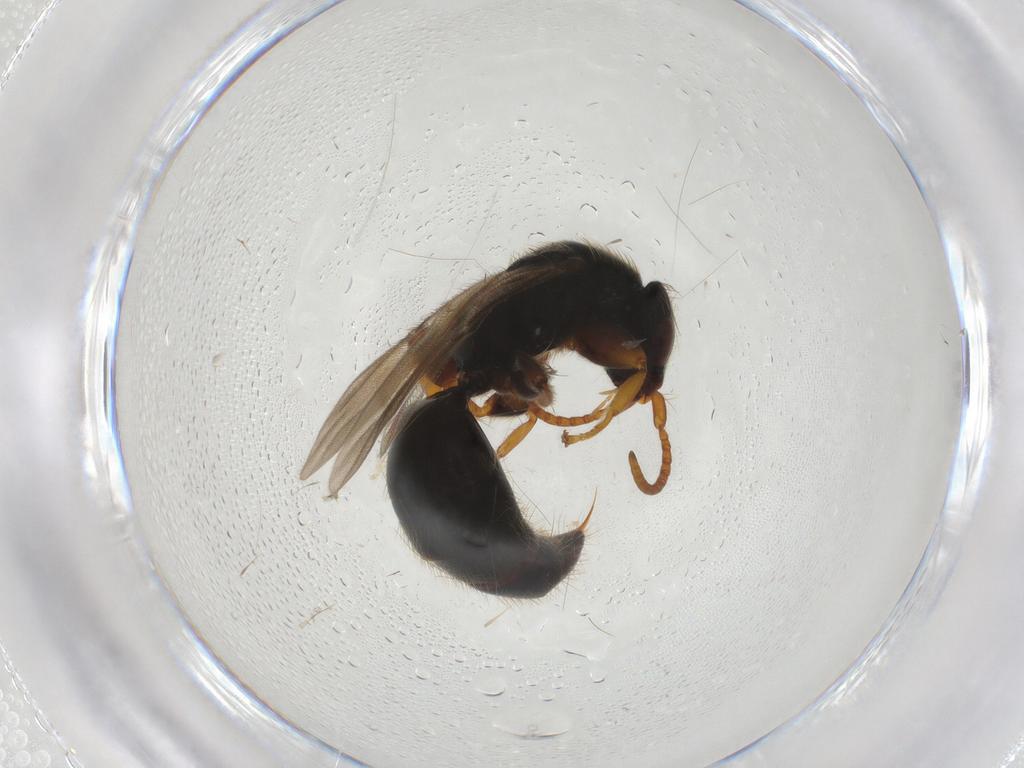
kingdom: Animalia
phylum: Arthropoda
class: Insecta
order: Hymenoptera
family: Bethylidae
